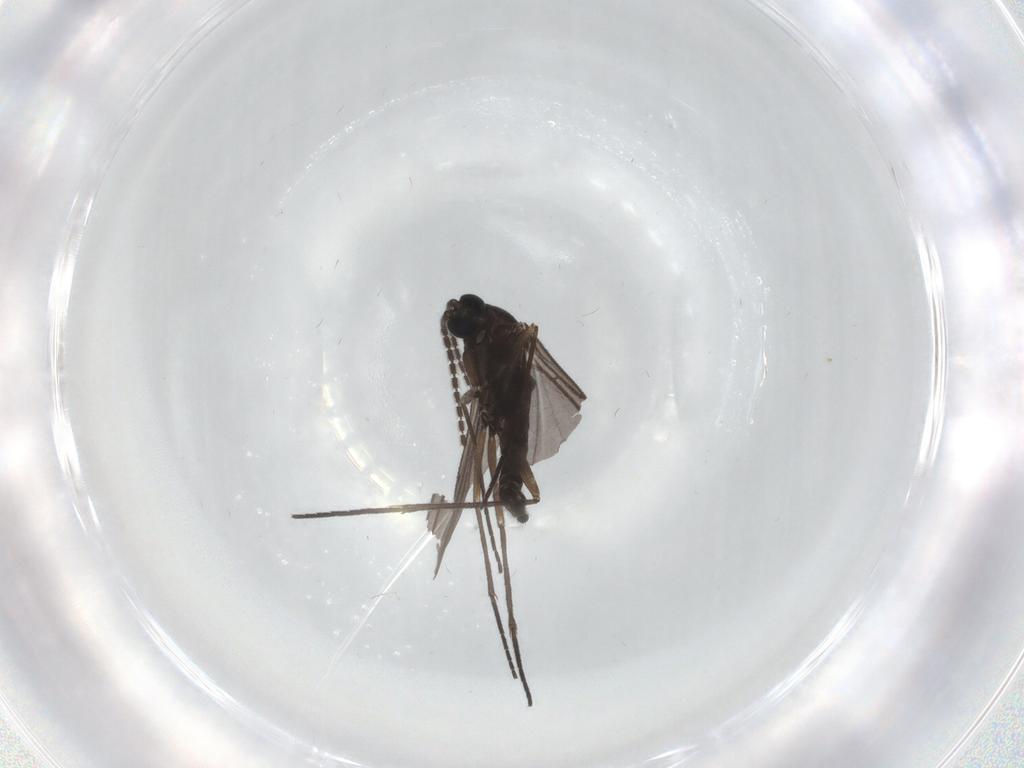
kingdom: Animalia
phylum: Arthropoda
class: Insecta
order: Diptera
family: Sciaridae
